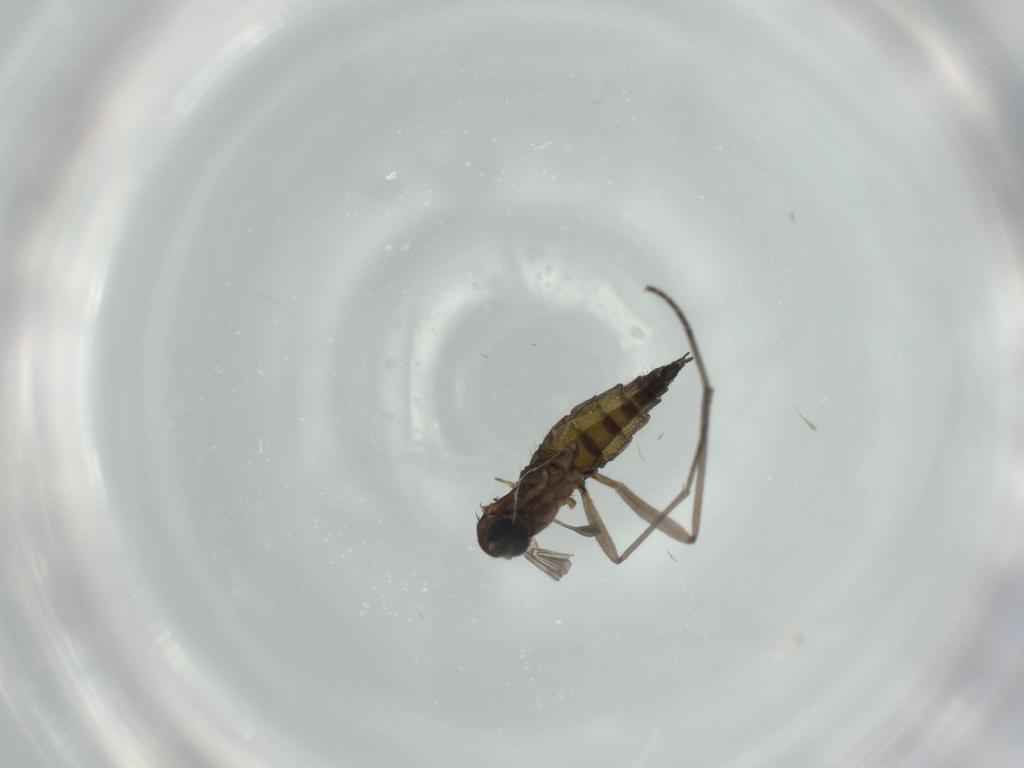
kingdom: Animalia
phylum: Arthropoda
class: Insecta
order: Diptera
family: Sciaridae
